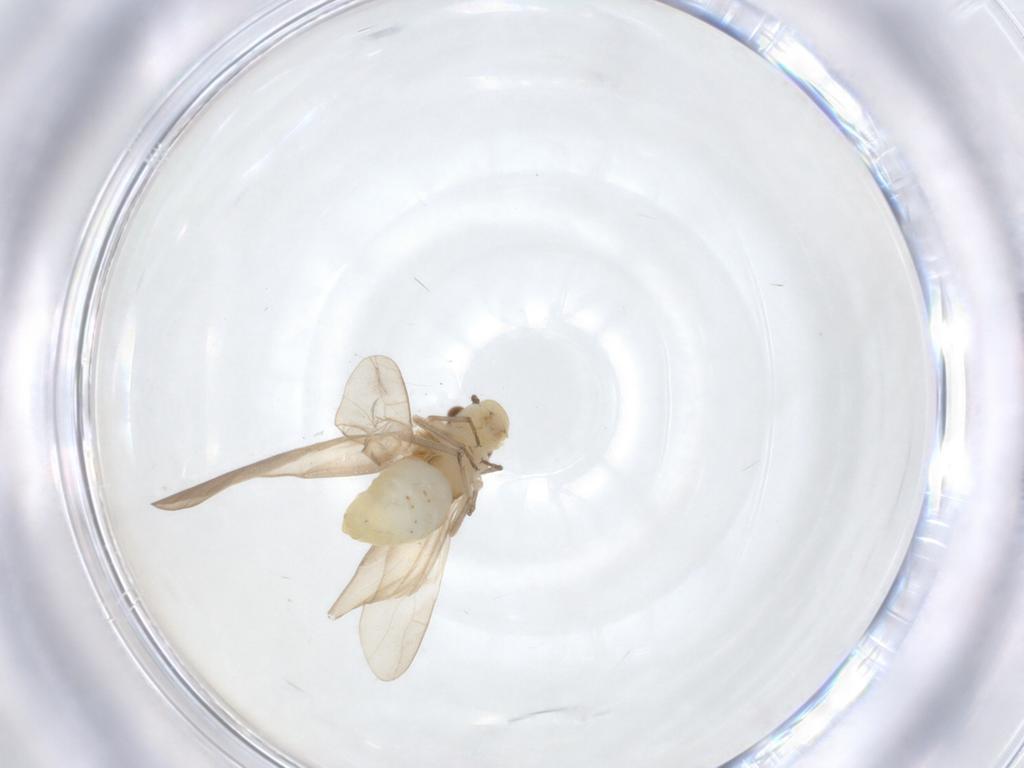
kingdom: Animalia
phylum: Arthropoda
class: Insecta
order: Psocodea
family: Caeciliusidae
